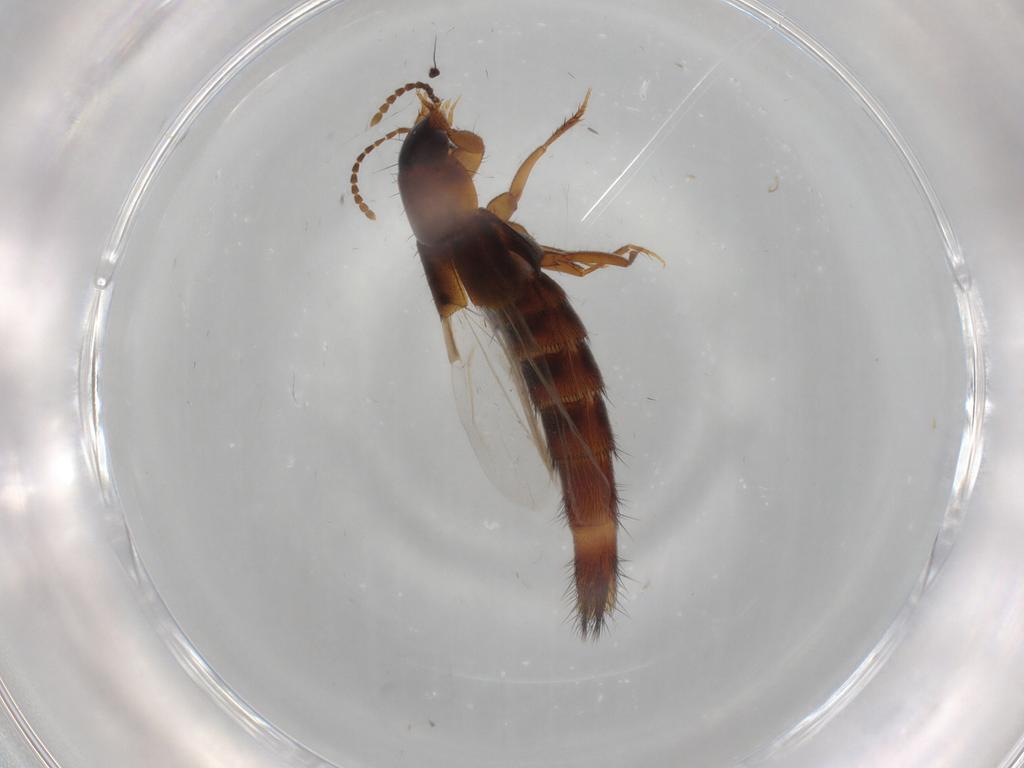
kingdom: Animalia
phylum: Arthropoda
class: Insecta
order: Coleoptera
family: Staphylinidae
